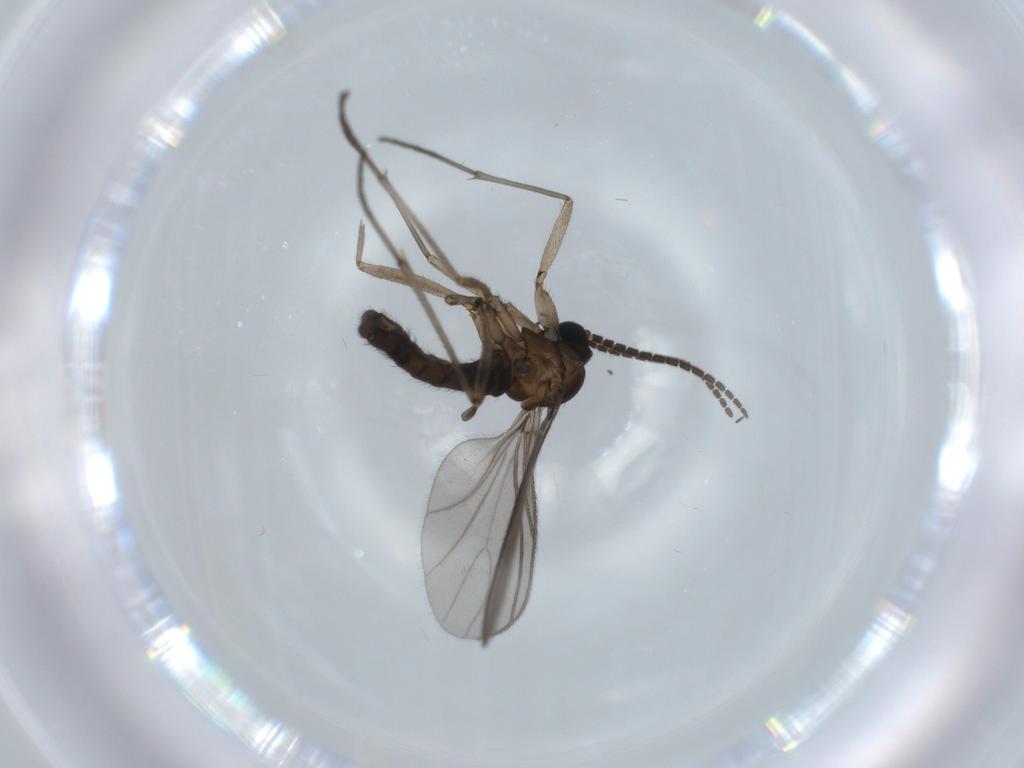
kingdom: Animalia
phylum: Arthropoda
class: Insecta
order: Diptera
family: Sciaridae
